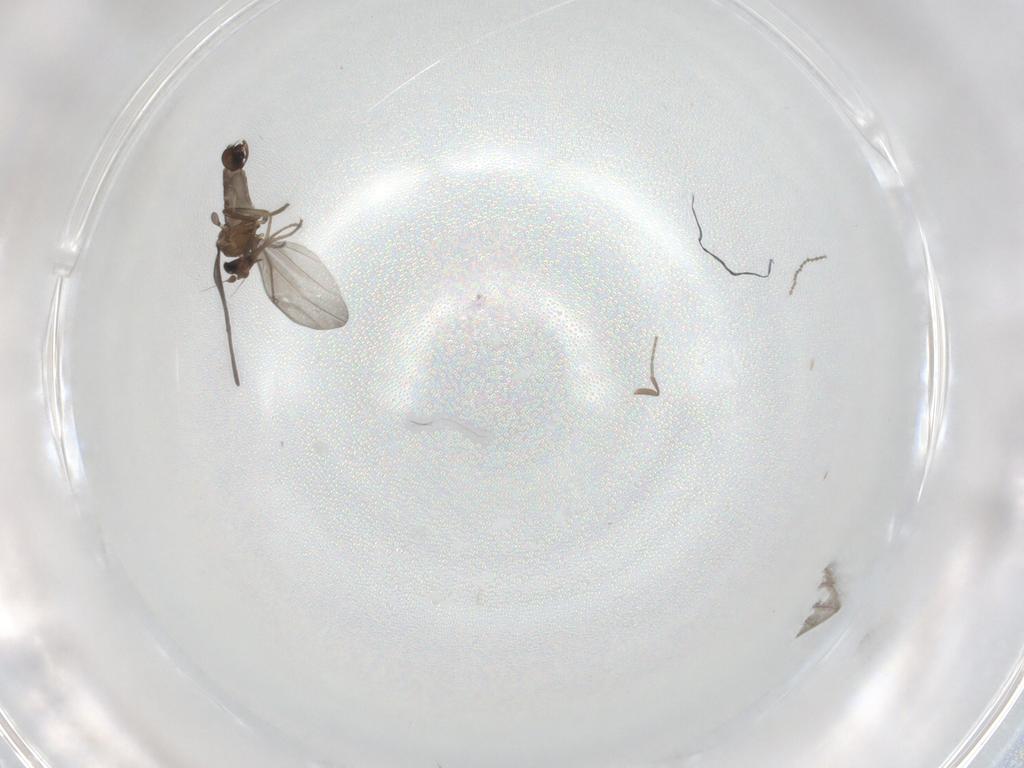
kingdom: Animalia
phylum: Arthropoda
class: Insecta
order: Diptera
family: Phoridae
